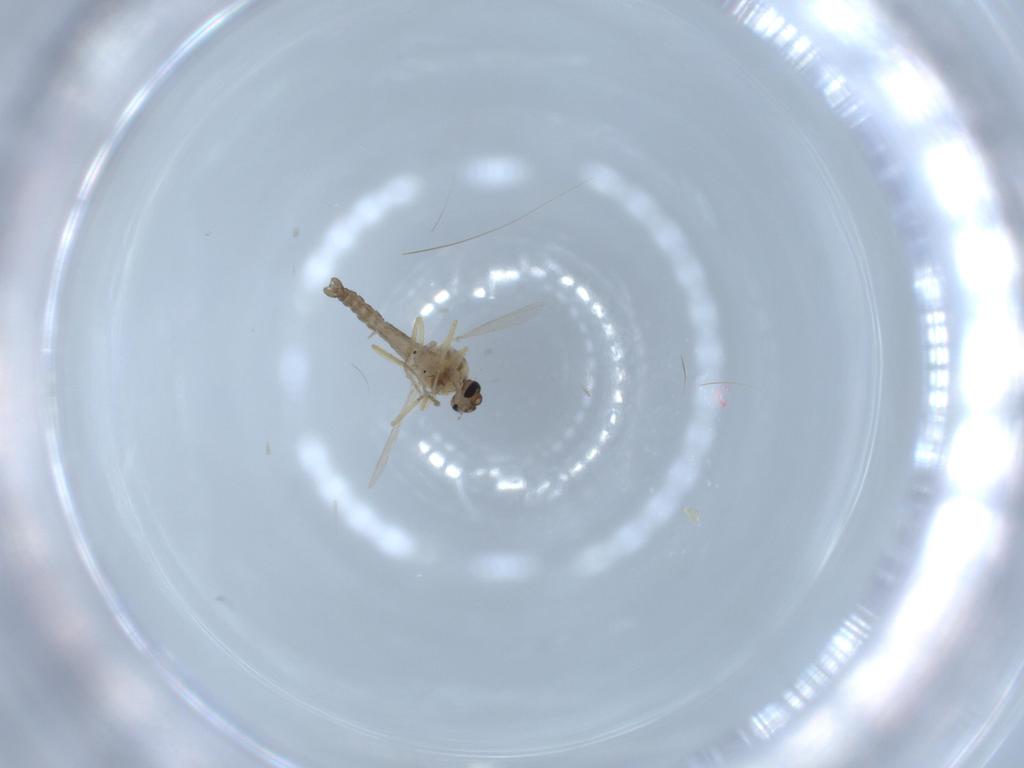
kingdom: Animalia
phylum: Arthropoda
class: Insecta
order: Diptera
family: Ceratopogonidae
